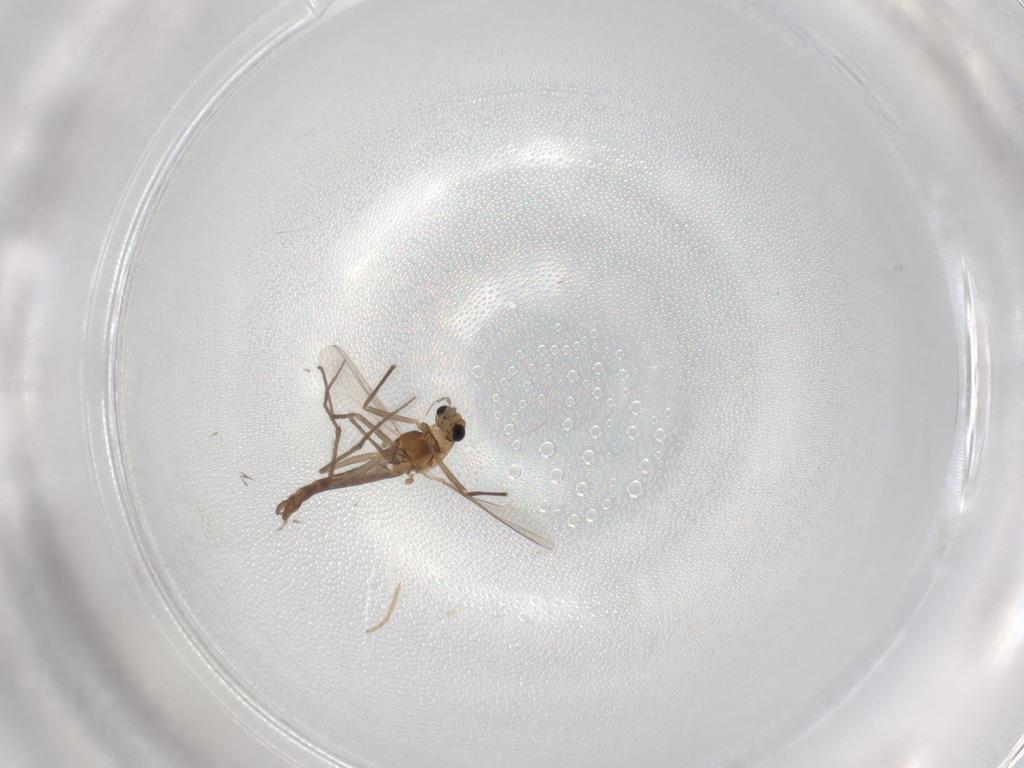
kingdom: Animalia
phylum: Arthropoda
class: Insecta
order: Diptera
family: Chironomidae
